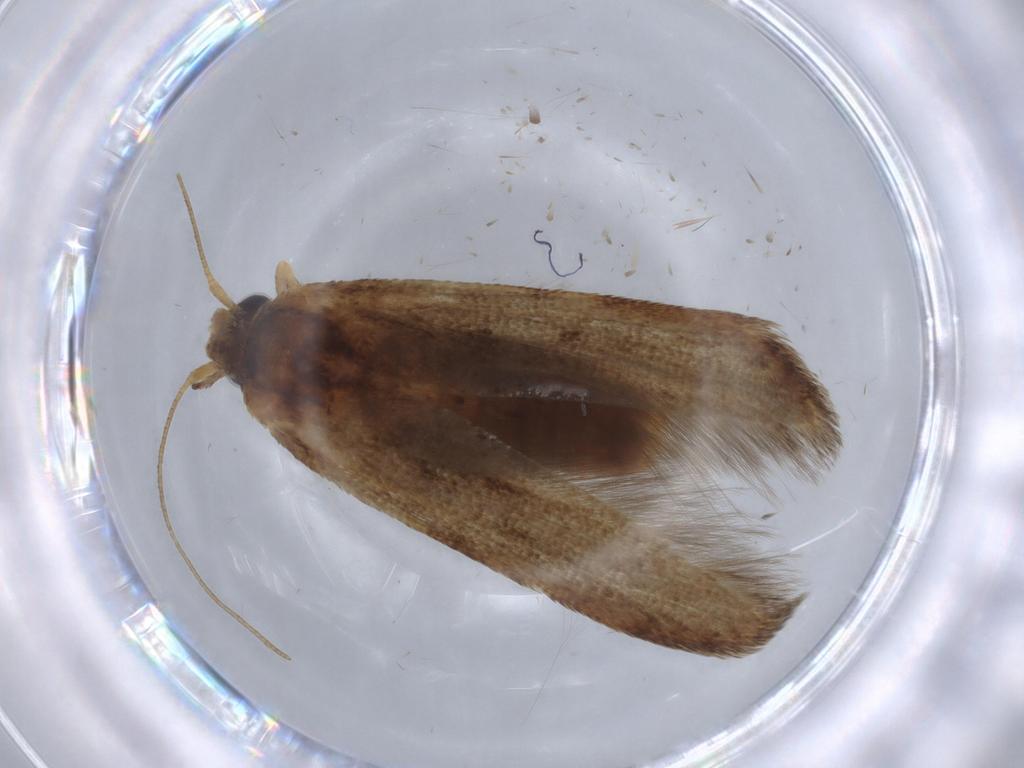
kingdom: Animalia
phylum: Arthropoda
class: Insecta
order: Lepidoptera
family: Blastobasidae
